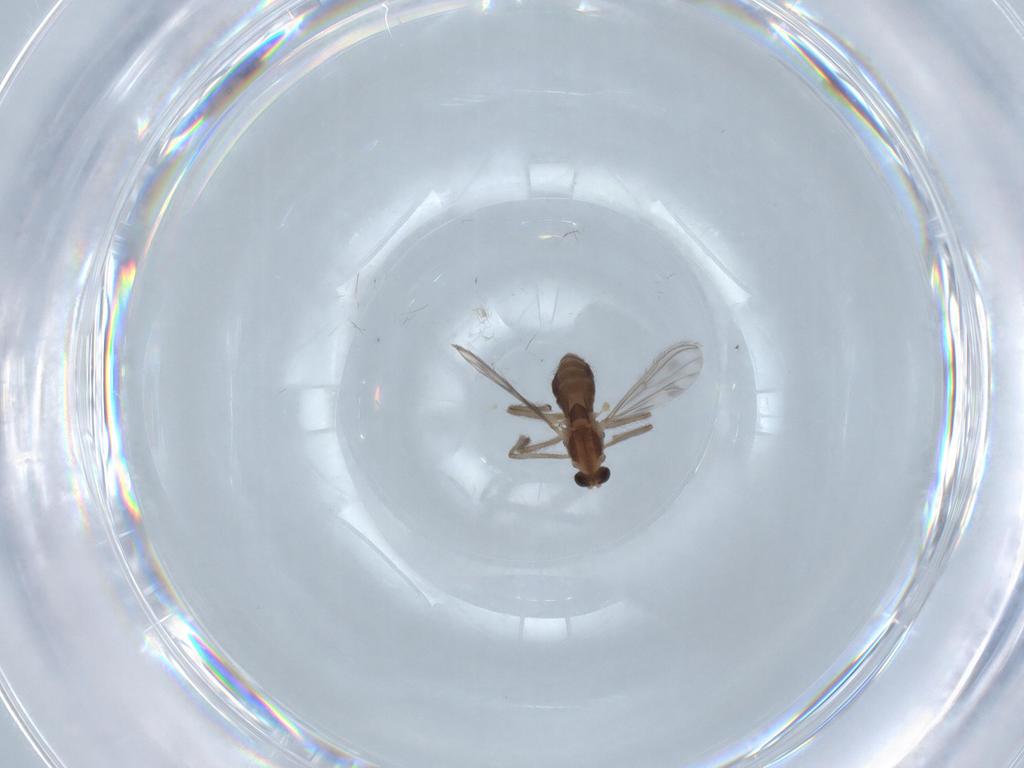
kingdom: Animalia
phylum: Arthropoda
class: Insecta
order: Diptera
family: Chironomidae
